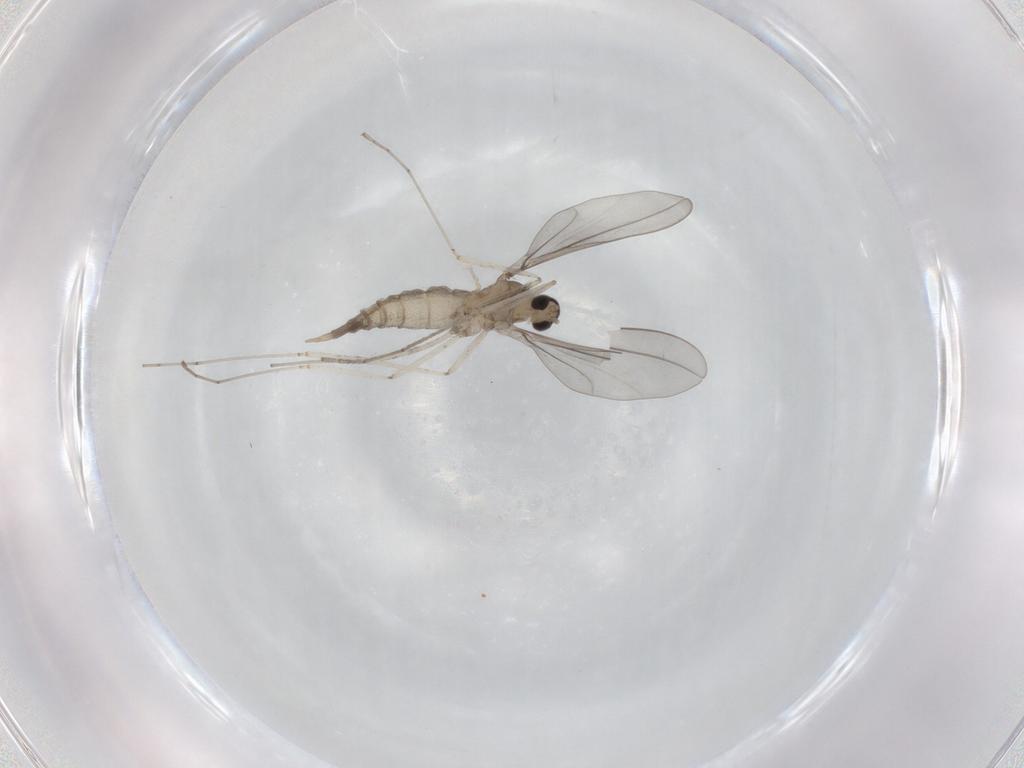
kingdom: Animalia
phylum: Arthropoda
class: Insecta
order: Diptera
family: Cecidomyiidae
